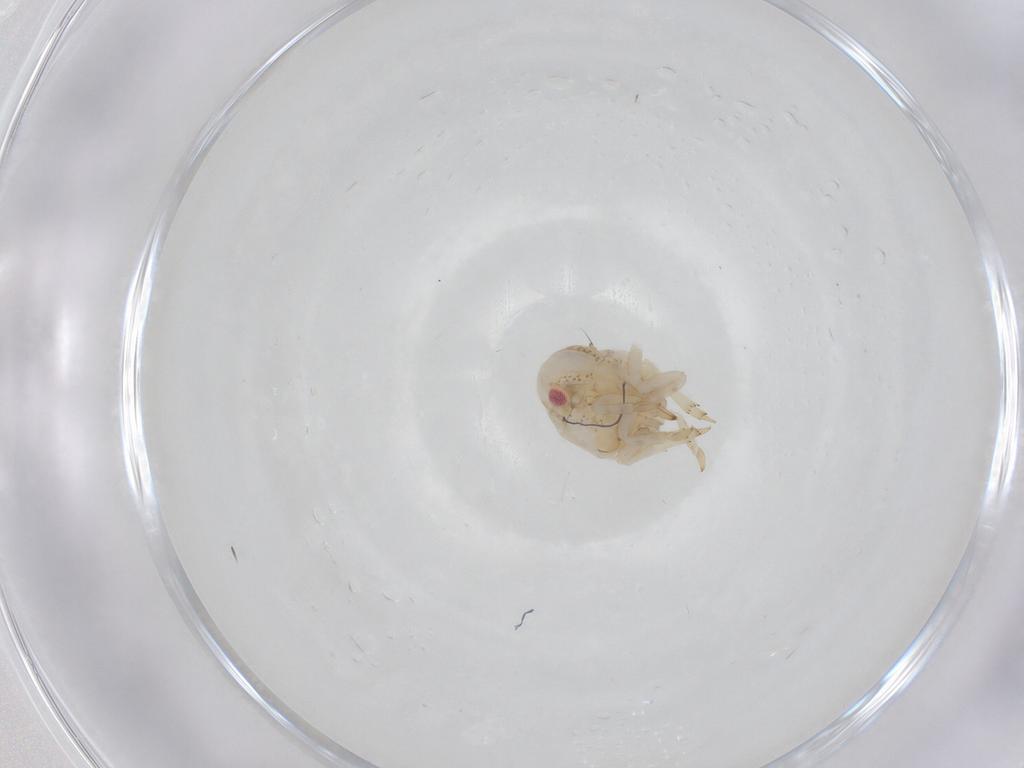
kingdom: Animalia
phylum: Arthropoda
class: Insecta
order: Hemiptera
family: Acanaloniidae
